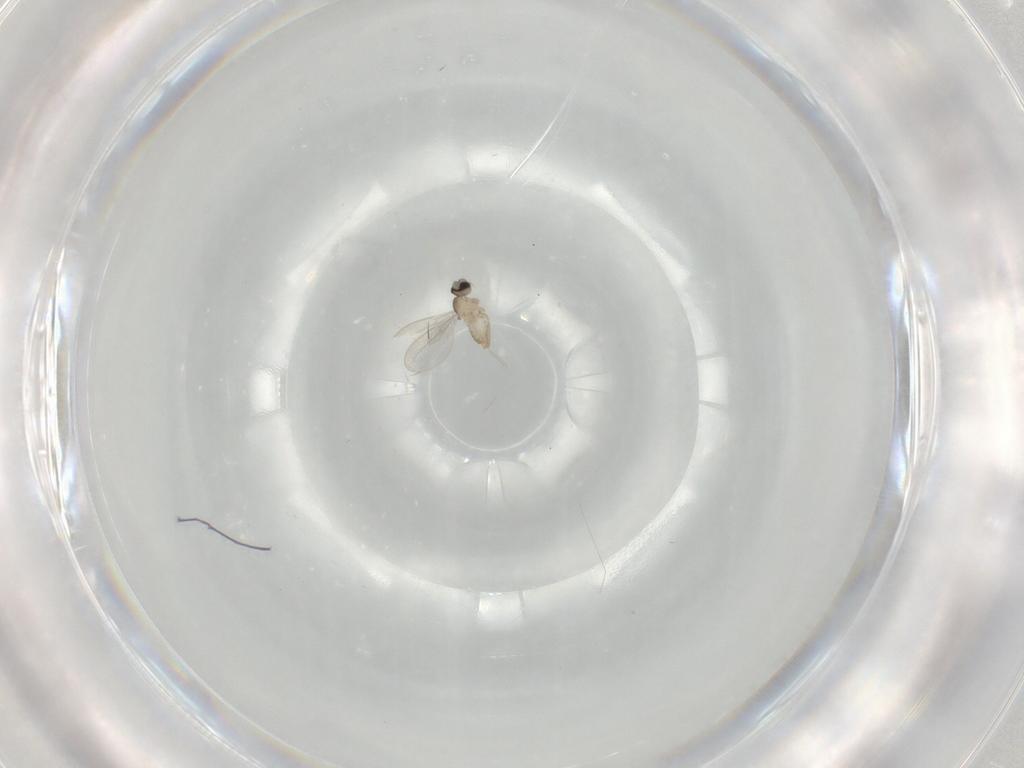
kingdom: Animalia
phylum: Arthropoda
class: Insecta
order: Diptera
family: Cecidomyiidae
